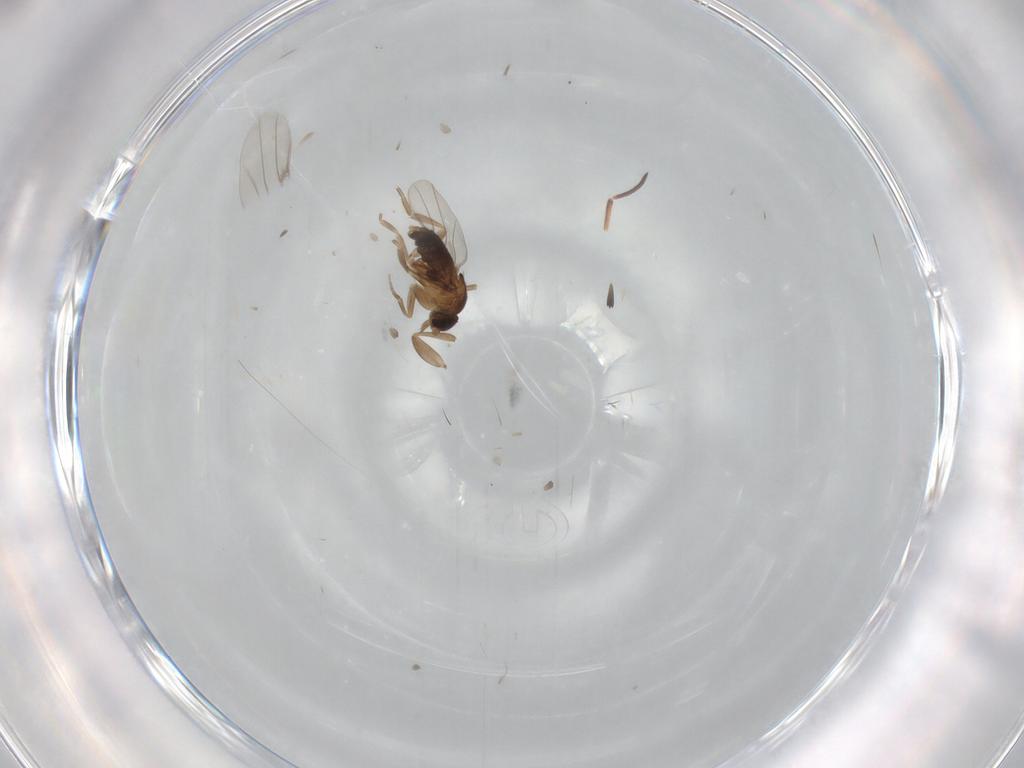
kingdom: Animalia
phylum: Arthropoda
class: Insecta
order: Diptera
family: Phoridae
